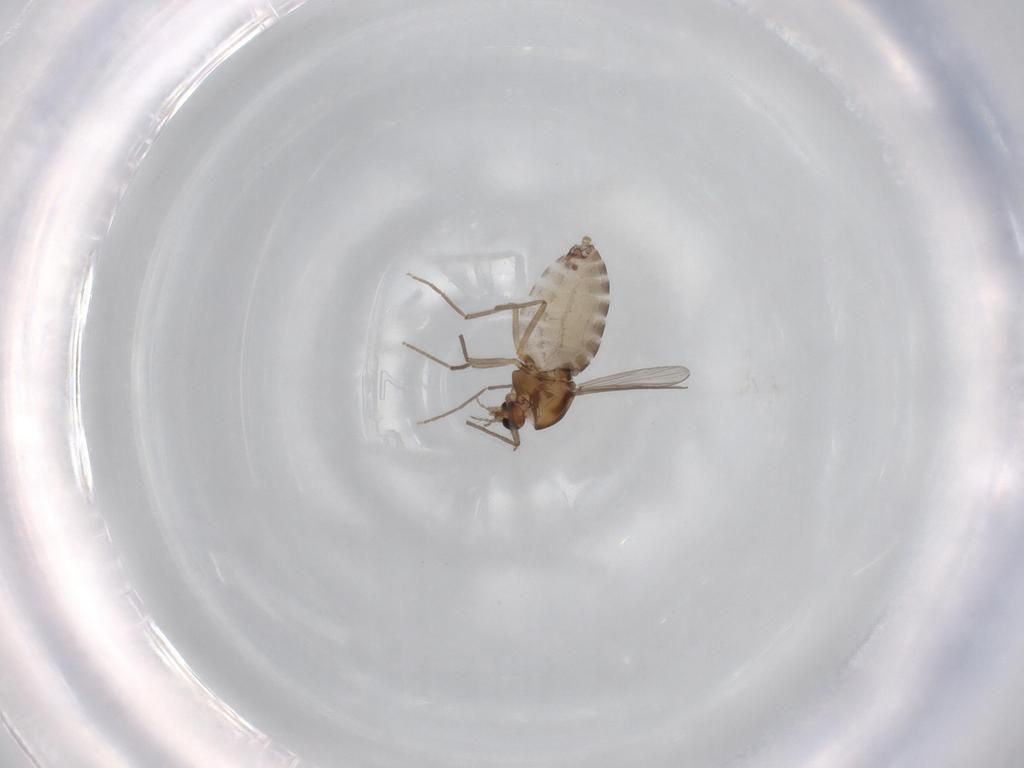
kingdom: Animalia
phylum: Arthropoda
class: Insecta
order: Diptera
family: Chironomidae
